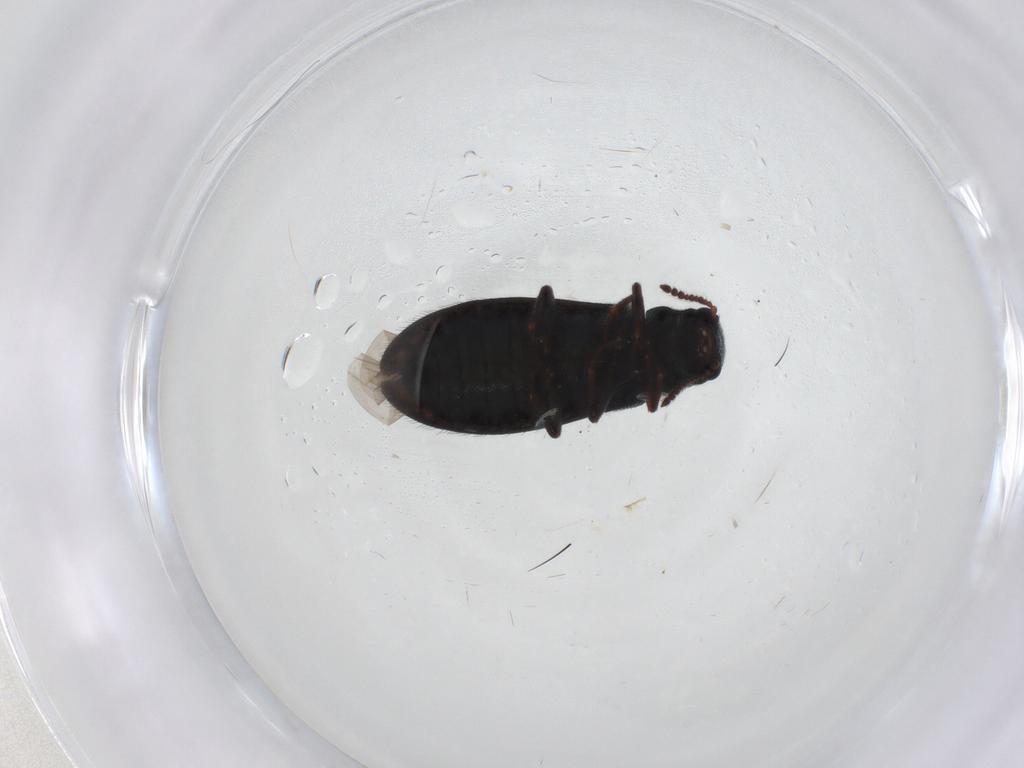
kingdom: Animalia
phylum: Arthropoda
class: Insecta
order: Coleoptera
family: Melyridae
